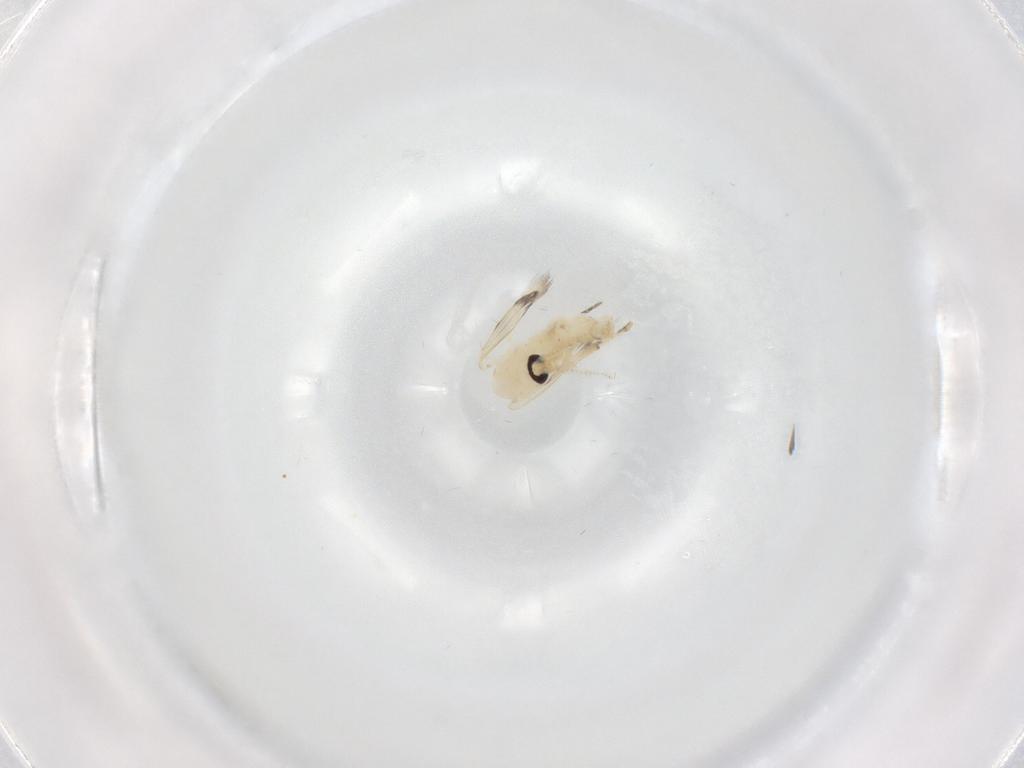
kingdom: Animalia
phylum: Arthropoda
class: Insecta
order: Diptera
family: Psychodidae
